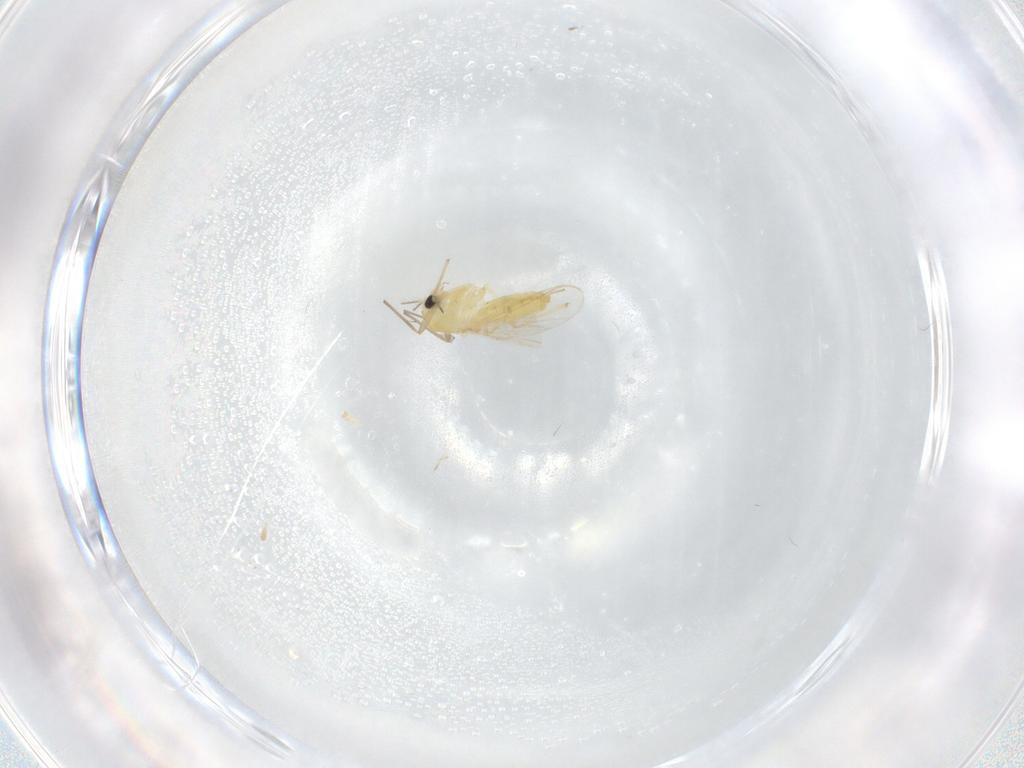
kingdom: Animalia
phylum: Arthropoda
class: Insecta
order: Diptera
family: Chironomidae
